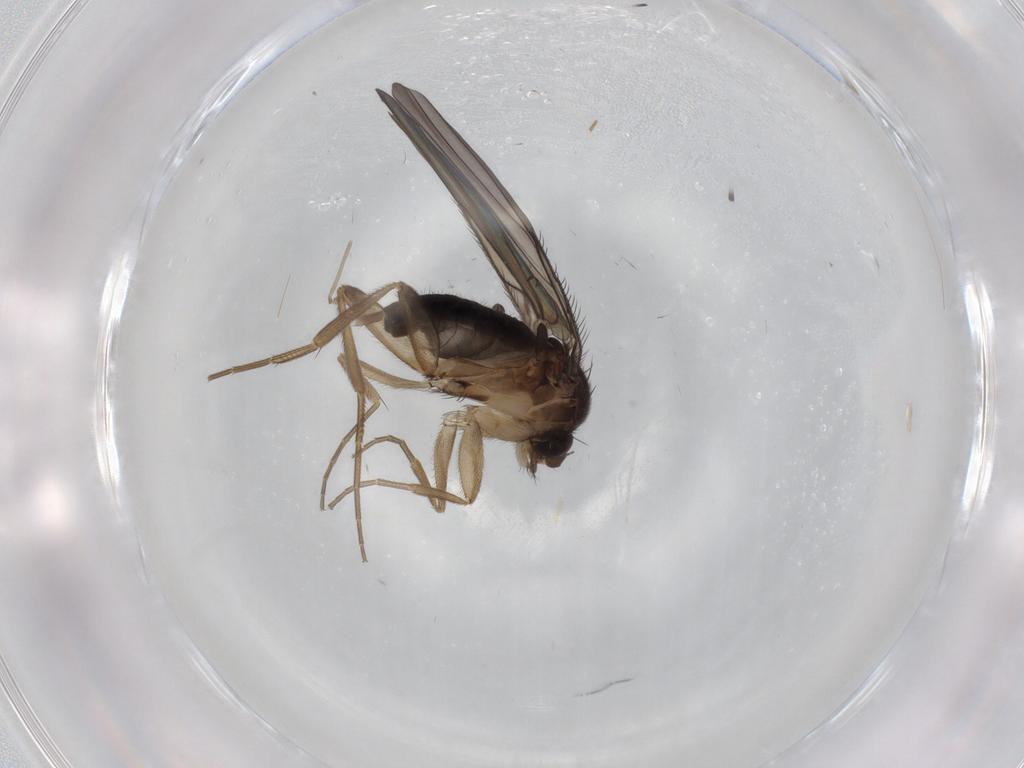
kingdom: Animalia
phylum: Arthropoda
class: Insecta
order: Diptera
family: Phoridae
